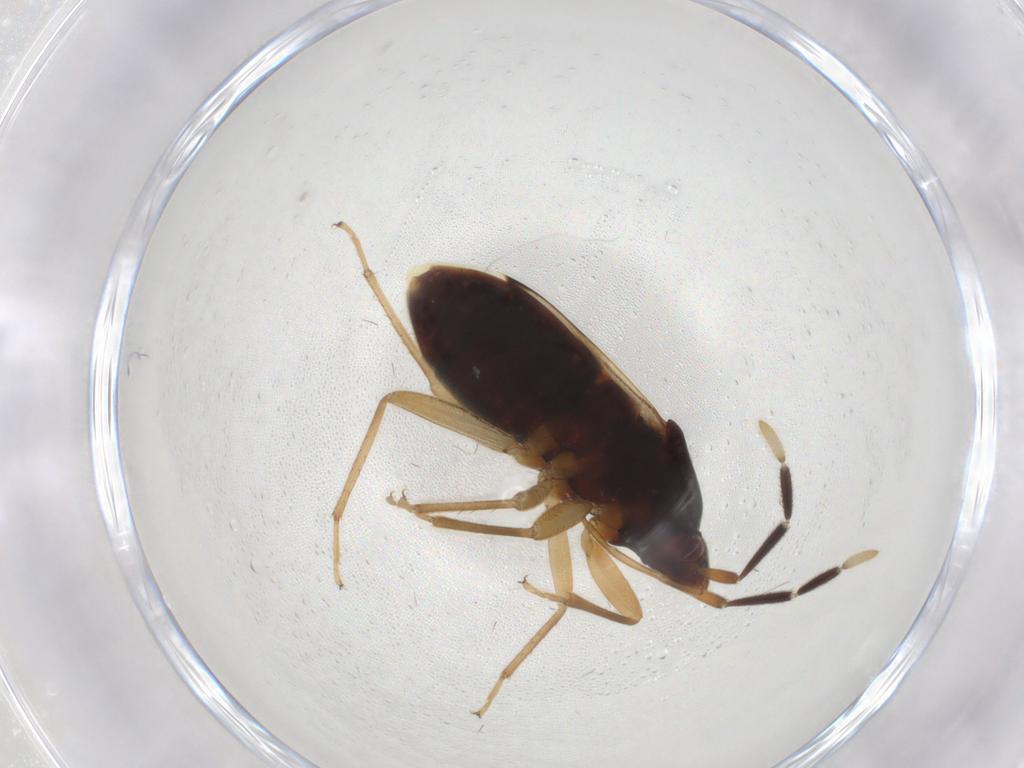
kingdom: Animalia
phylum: Arthropoda
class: Insecta
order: Hemiptera
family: Rhyparochromidae
